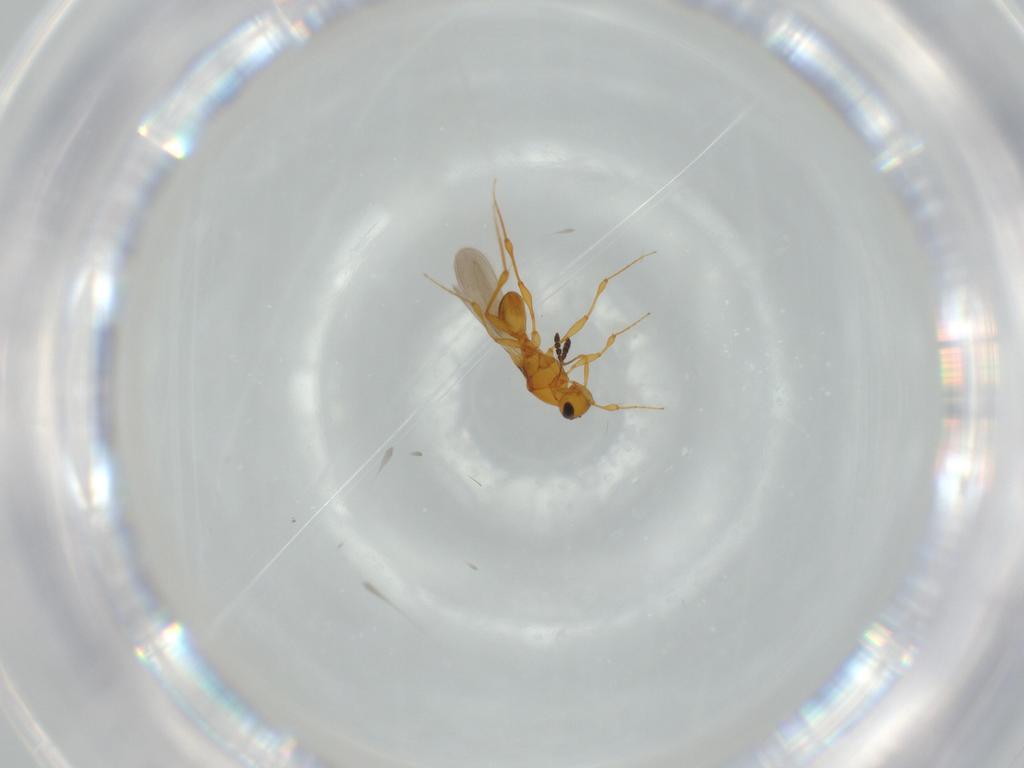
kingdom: Animalia
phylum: Arthropoda
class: Insecta
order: Hymenoptera
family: Platygastridae
